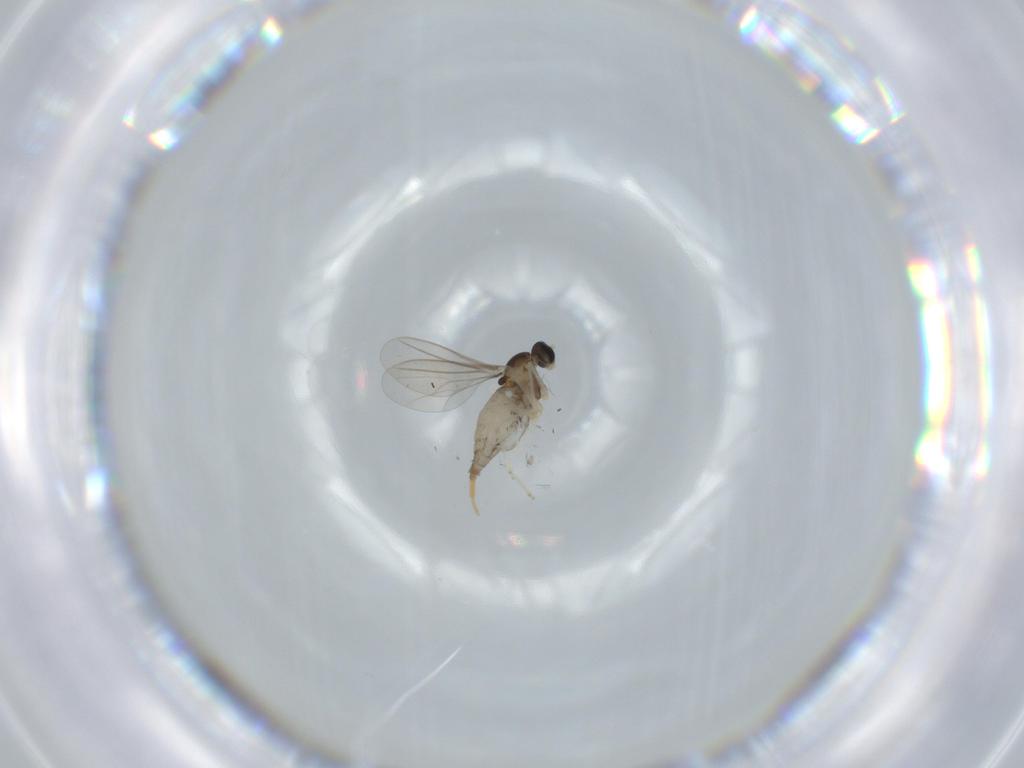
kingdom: Animalia
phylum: Arthropoda
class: Insecta
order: Diptera
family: Cecidomyiidae
